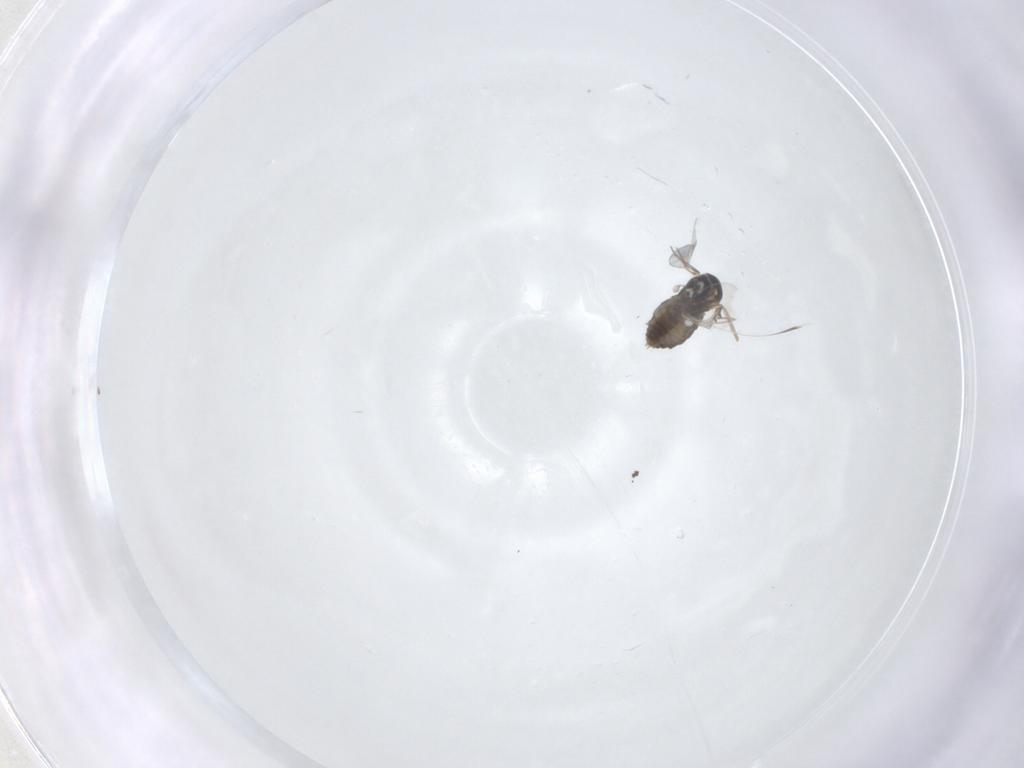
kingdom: Animalia
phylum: Arthropoda
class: Insecta
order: Diptera
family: Cecidomyiidae
